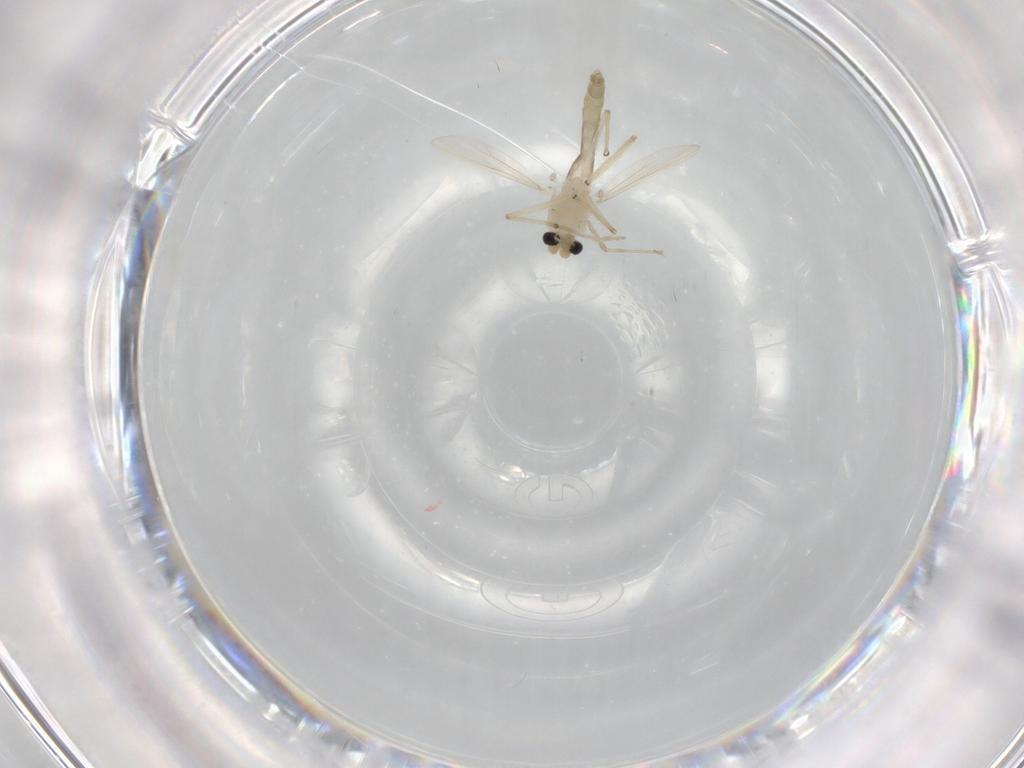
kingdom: Animalia
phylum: Arthropoda
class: Insecta
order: Diptera
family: Chironomidae
